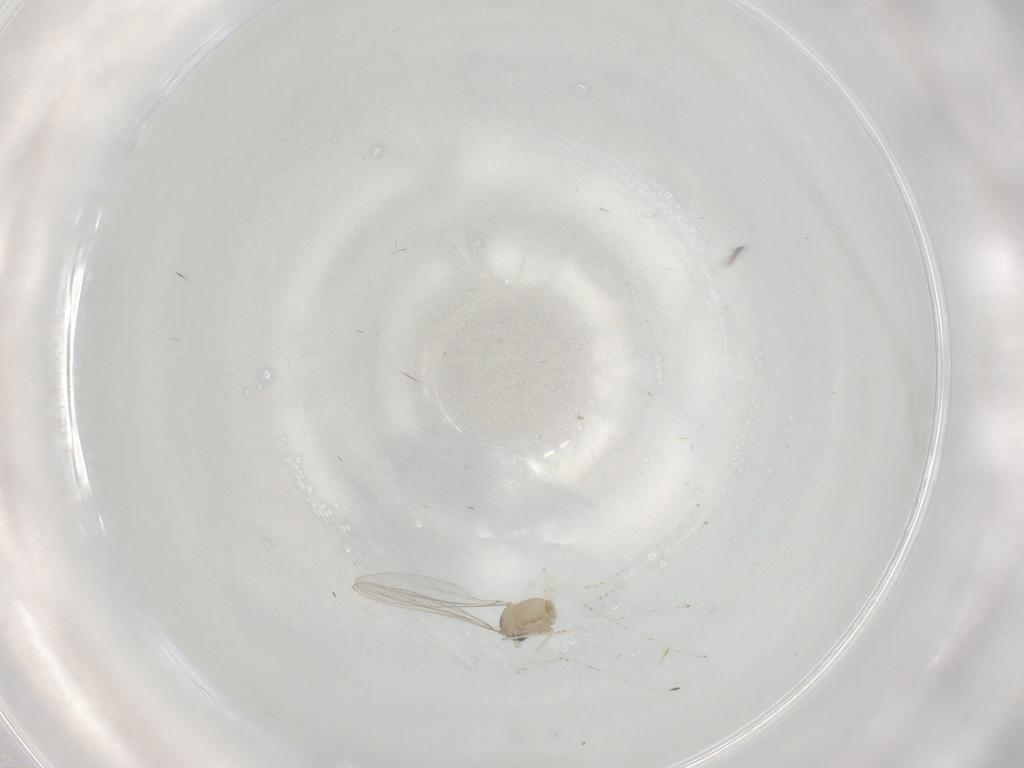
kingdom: Animalia
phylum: Arthropoda
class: Insecta
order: Diptera
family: Cecidomyiidae
